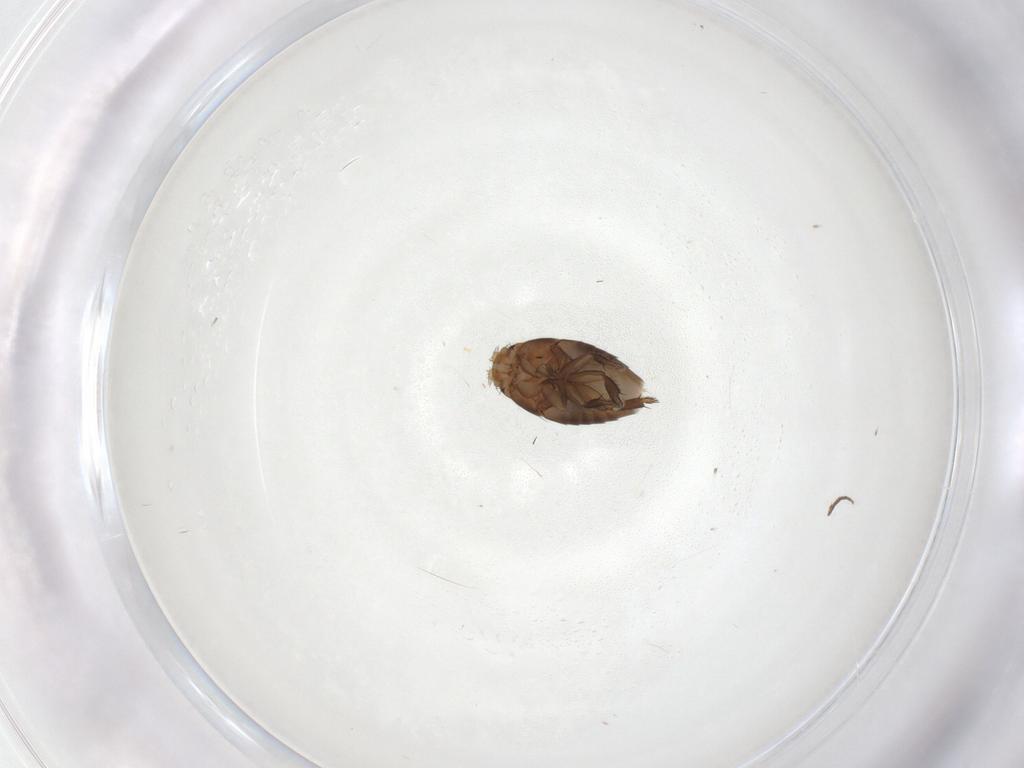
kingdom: Animalia
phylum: Arthropoda
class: Insecta
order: Diptera
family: Phoridae
